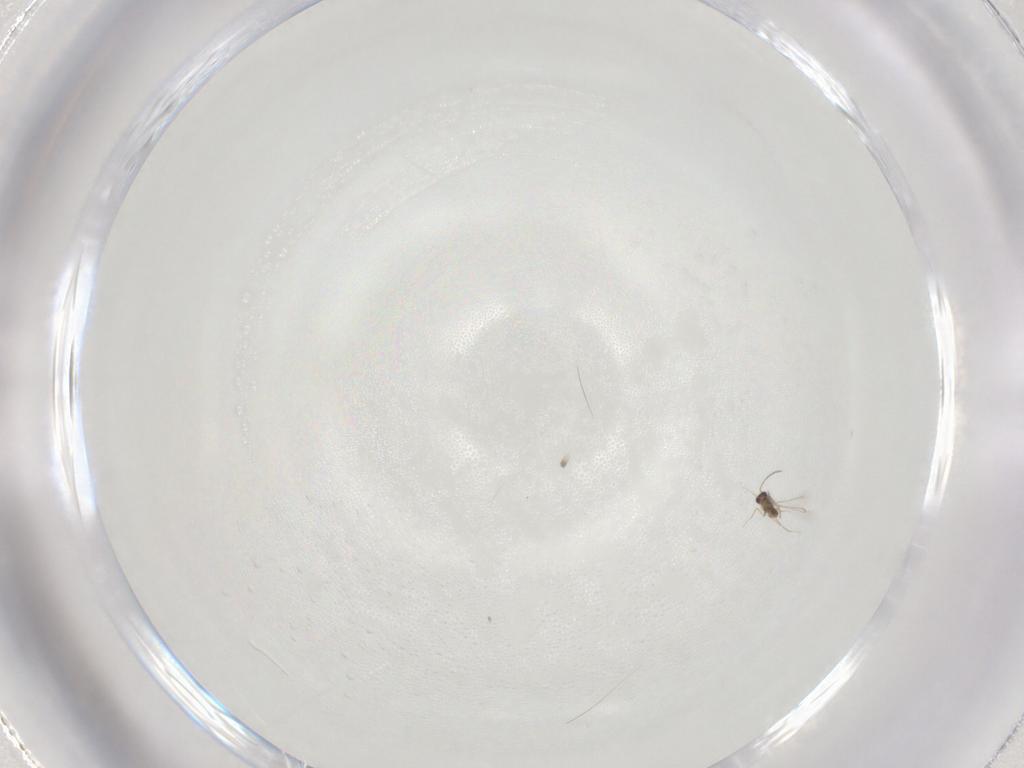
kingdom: Animalia
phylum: Arthropoda
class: Insecta
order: Hymenoptera
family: Mymaridae
